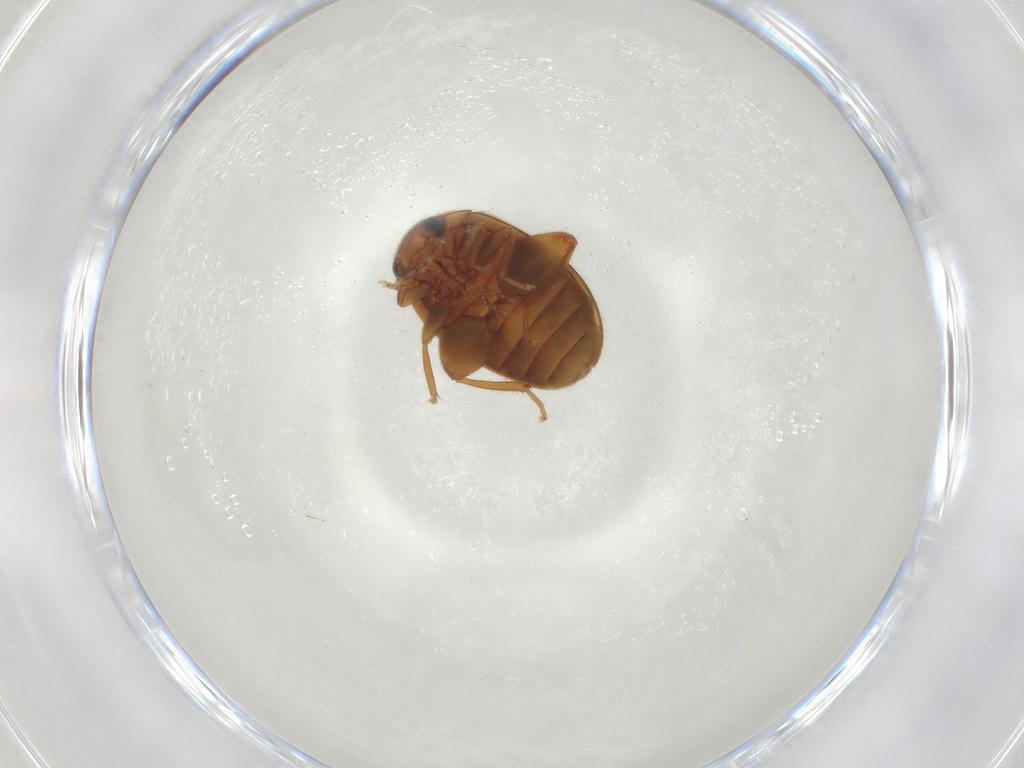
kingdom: Animalia
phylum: Arthropoda
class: Insecta
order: Coleoptera
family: Scirtidae
